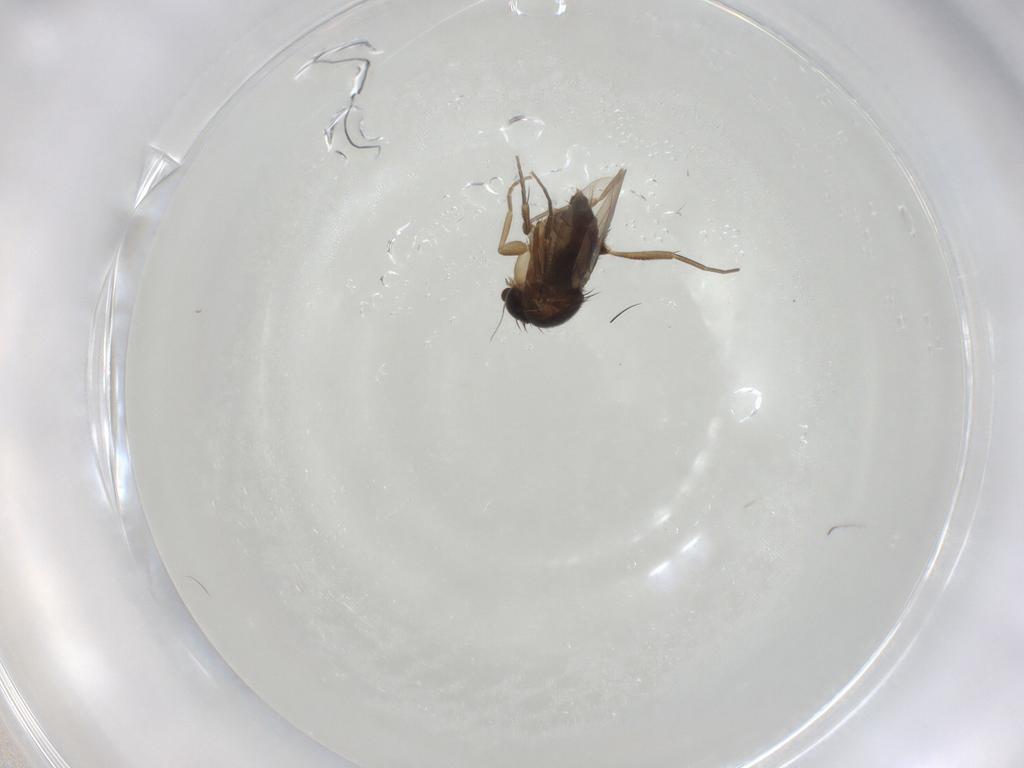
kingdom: Animalia
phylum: Arthropoda
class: Insecta
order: Diptera
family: Phoridae
